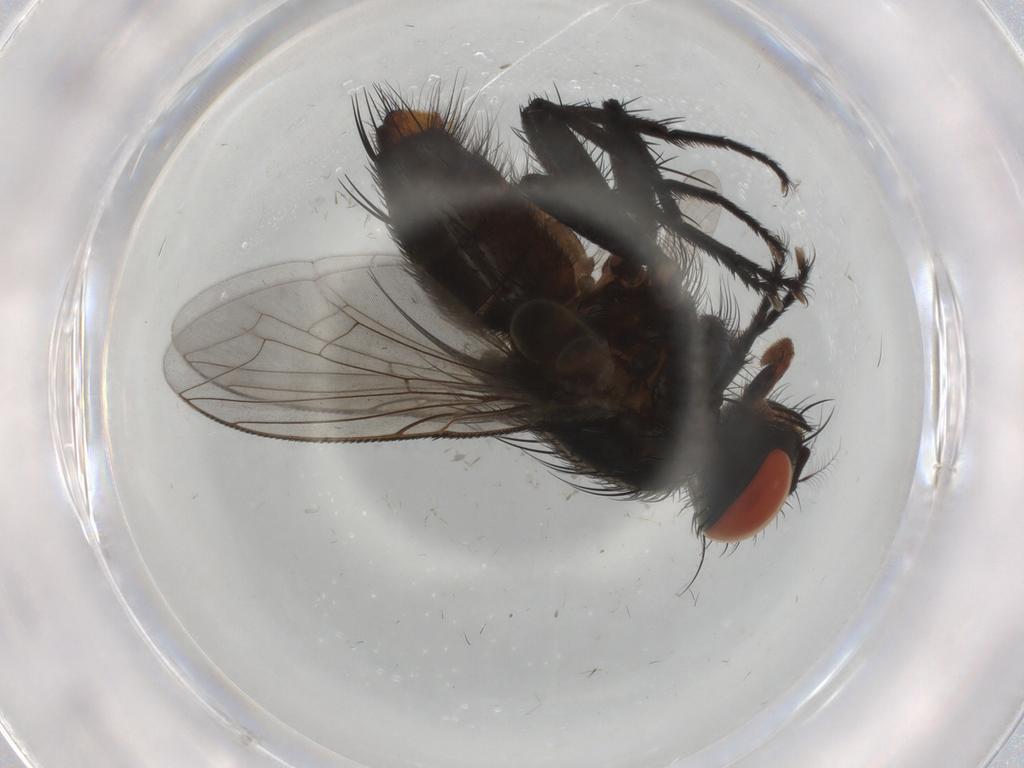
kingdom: Animalia
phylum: Arthropoda
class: Insecta
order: Diptera
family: Sarcophagidae
